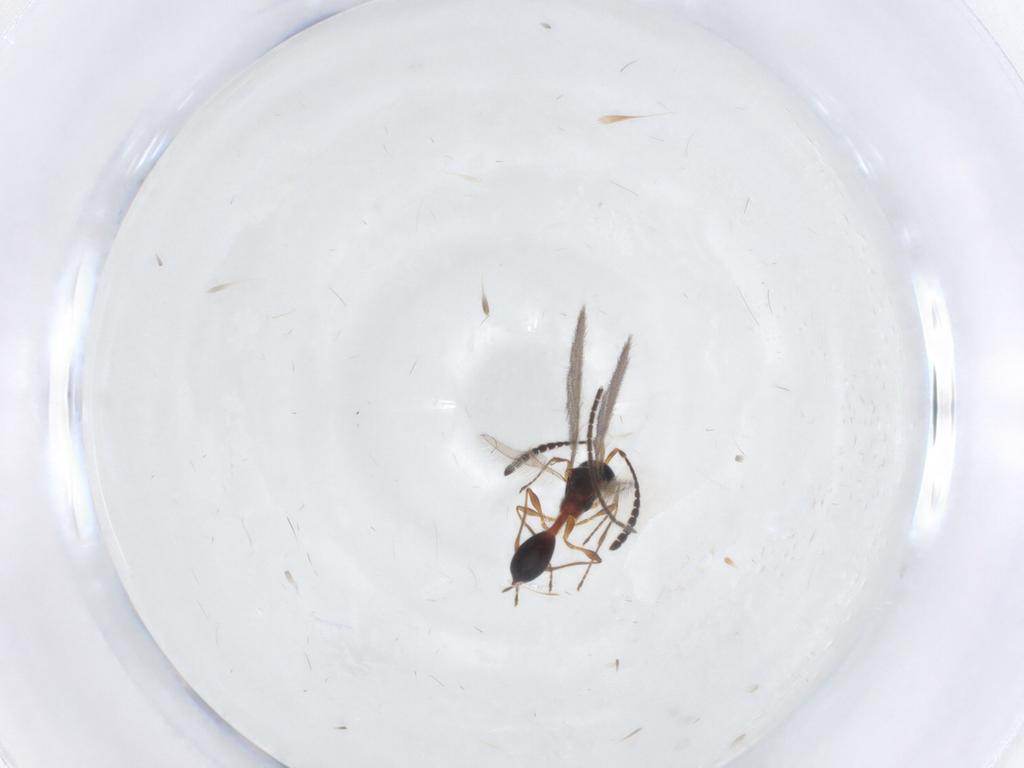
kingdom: Animalia
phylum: Arthropoda
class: Insecta
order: Hymenoptera
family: Diapriidae
